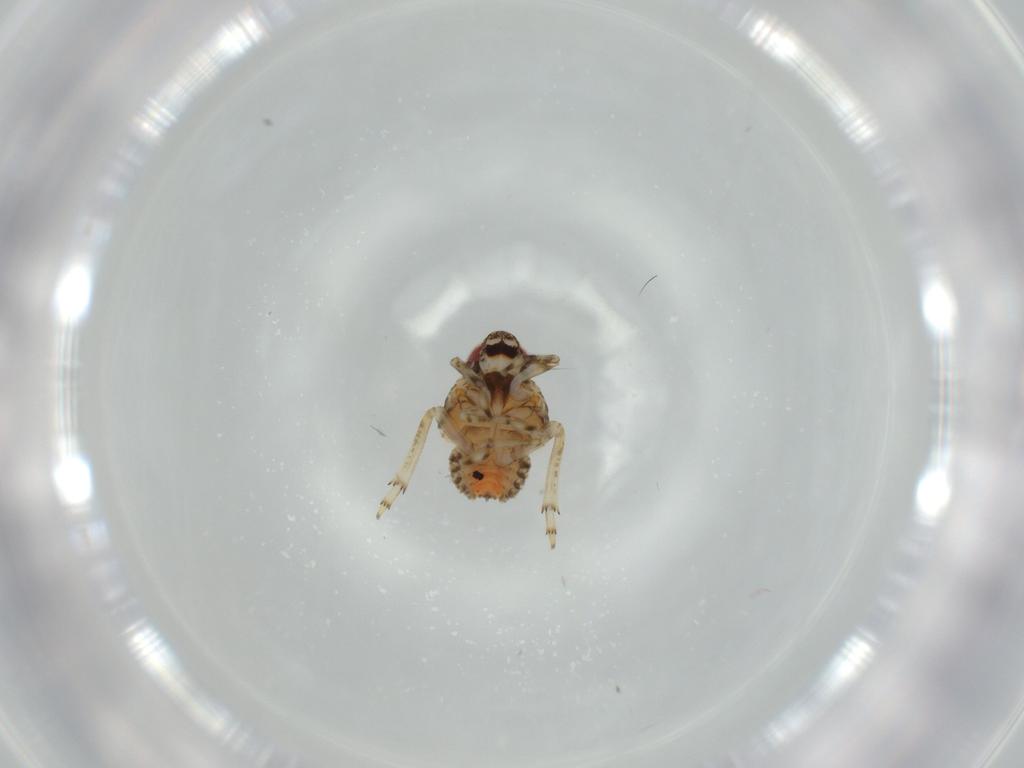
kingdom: Animalia
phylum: Arthropoda
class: Insecta
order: Hemiptera
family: Issidae
